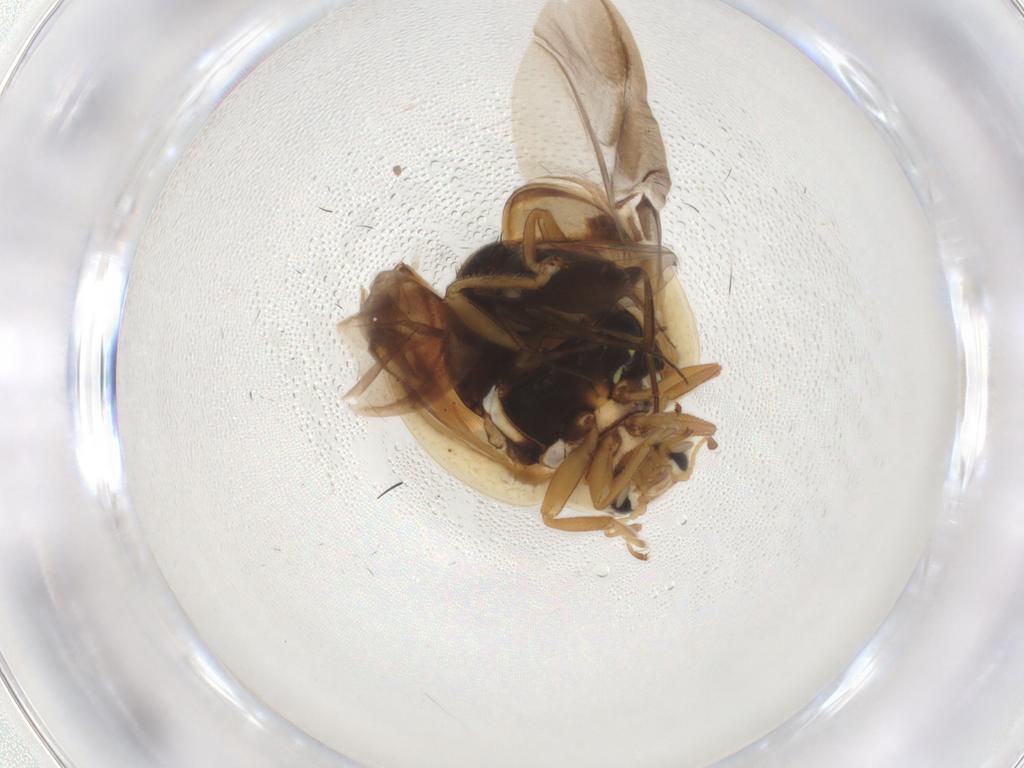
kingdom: Animalia
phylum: Arthropoda
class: Insecta
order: Coleoptera
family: Coccinellidae
